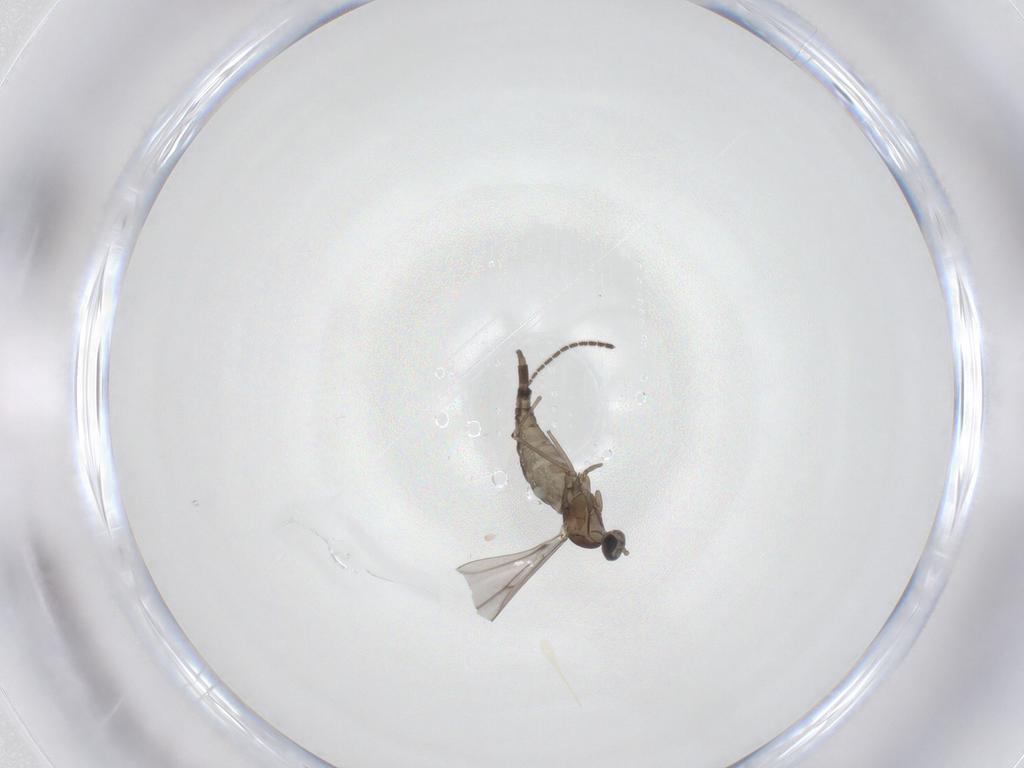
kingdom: Animalia
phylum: Arthropoda
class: Insecta
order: Diptera
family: Cecidomyiidae
